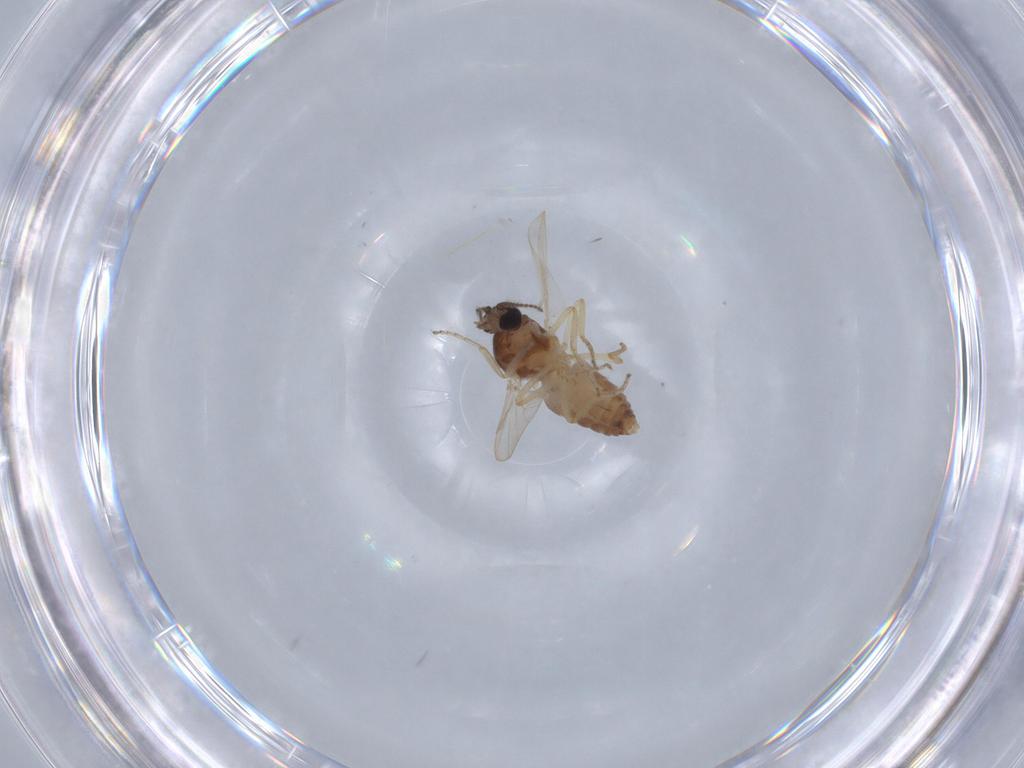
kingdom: Animalia
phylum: Arthropoda
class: Insecta
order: Diptera
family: Ceratopogonidae
